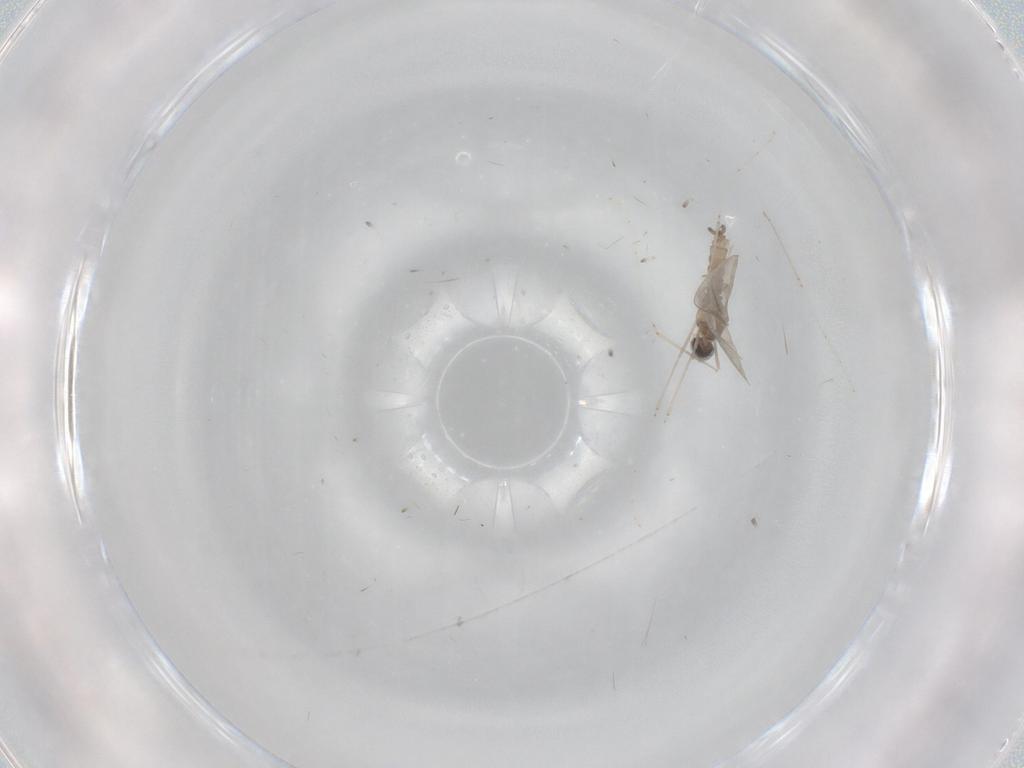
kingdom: Animalia
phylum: Arthropoda
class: Insecta
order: Diptera
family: Cecidomyiidae
